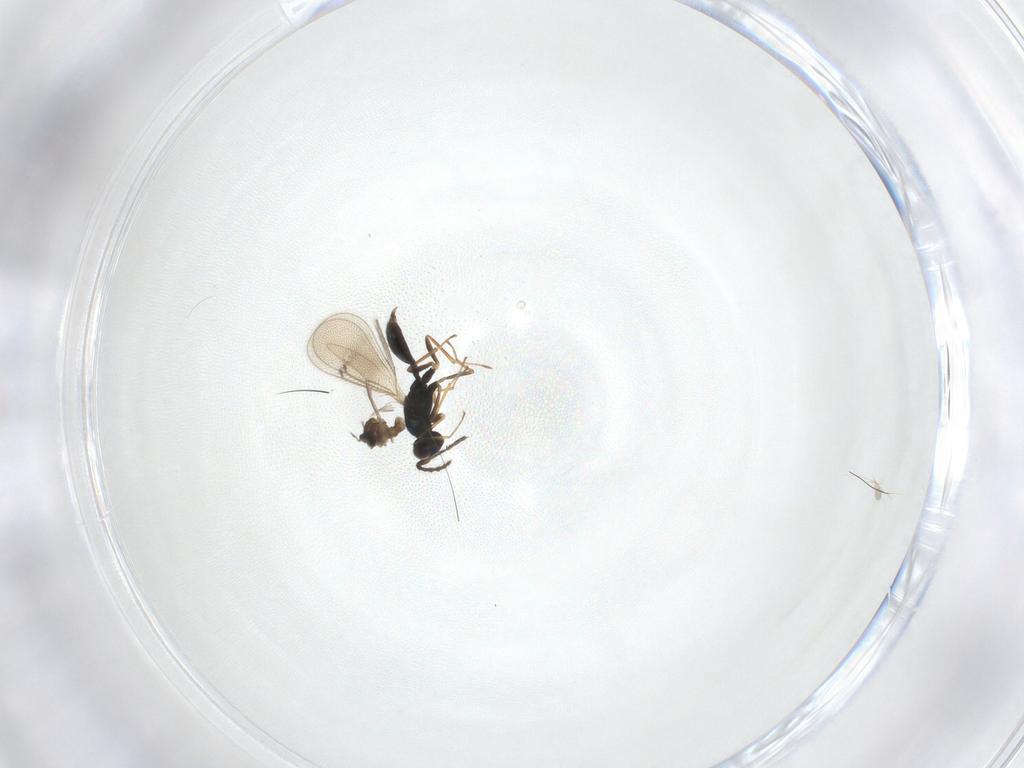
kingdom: Animalia
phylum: Arthropoda
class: Insecta
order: Hymenoptera
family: Eulophidae
